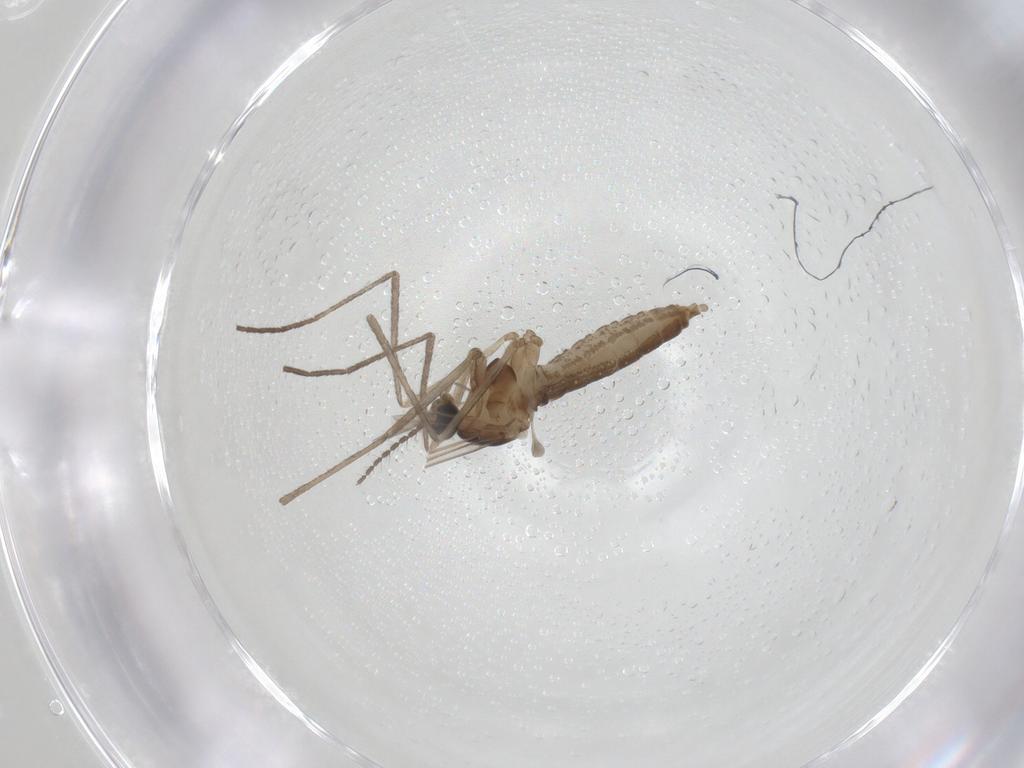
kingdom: Animalia
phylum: Arthropoda
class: Insecta
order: Diptera
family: Cecidomyiidae
